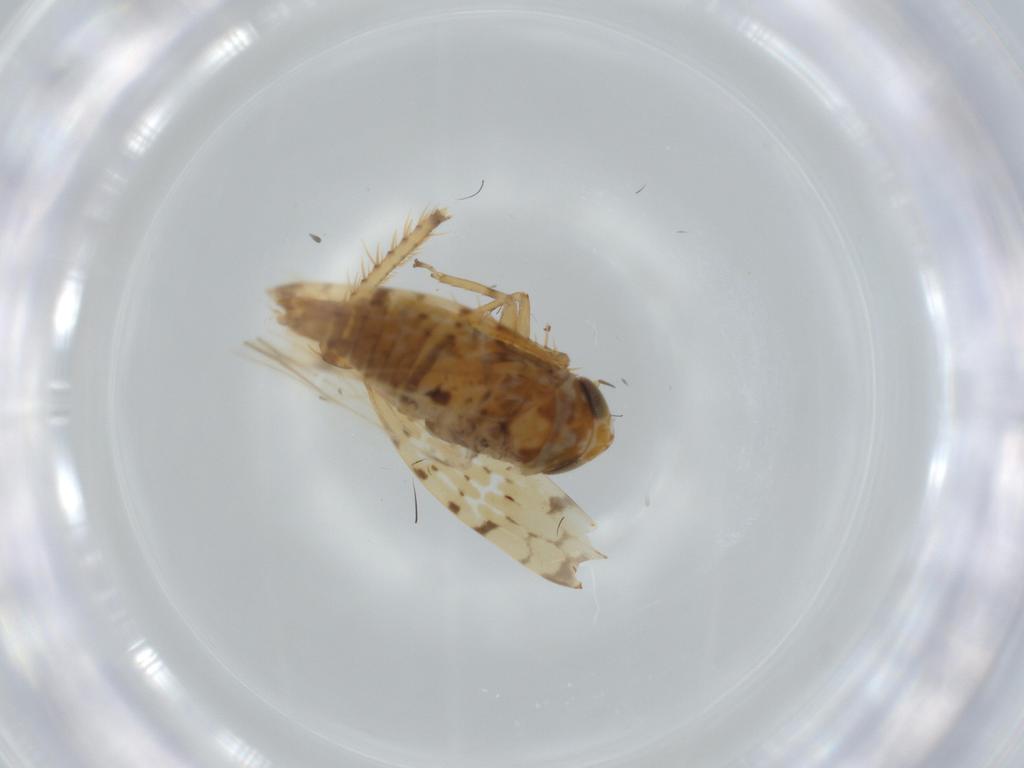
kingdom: Animalia
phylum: Arthropoda
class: Insecta
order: Hemiptera
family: Cicadellidae
